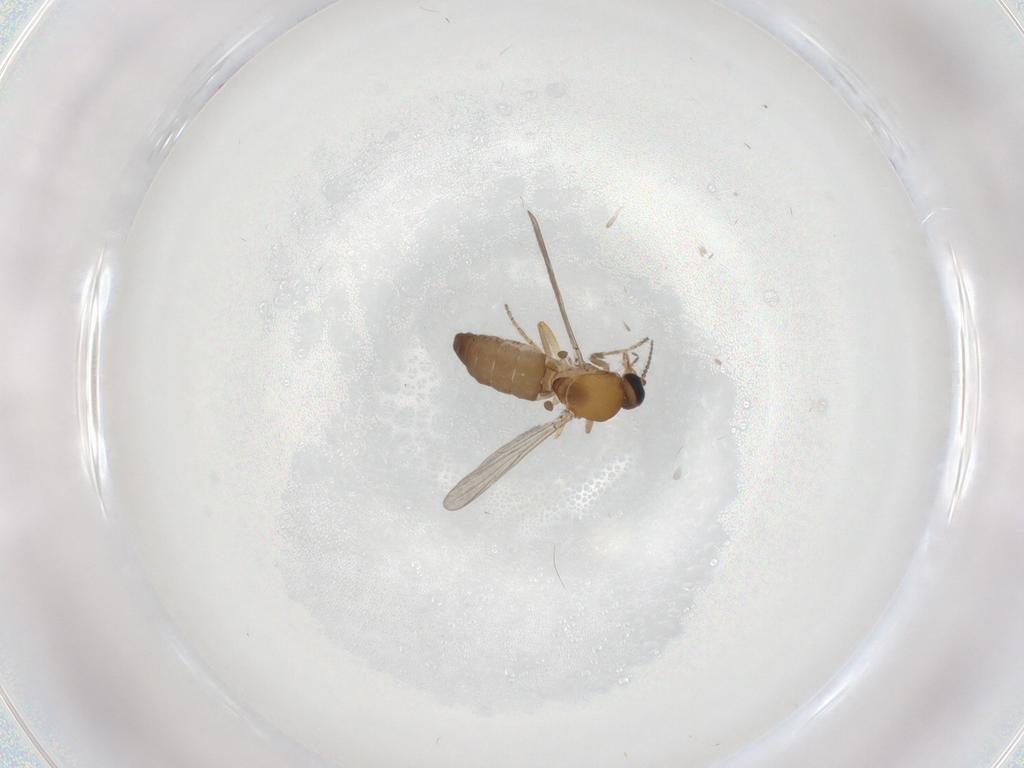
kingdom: Animalia
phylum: Arthropoda
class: Insecta
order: Diptera
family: Ceratopogonidae
